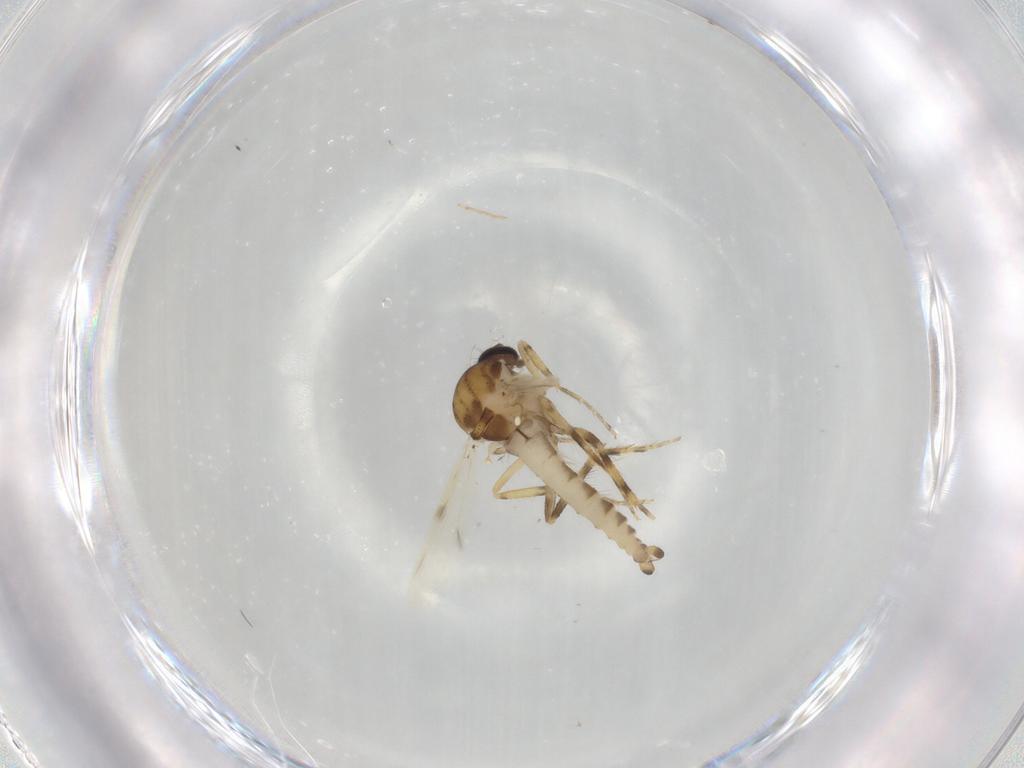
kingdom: Animalia
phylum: Arthropoda
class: Insecta
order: Diptera
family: Ceratopogonidae
